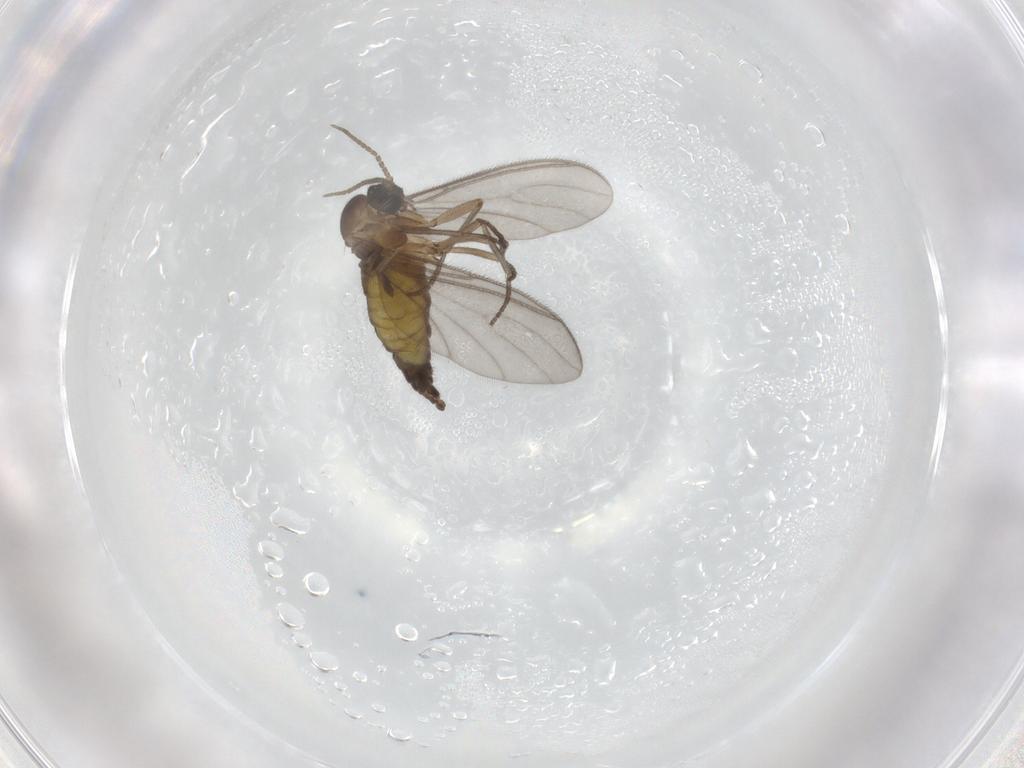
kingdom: Animalia
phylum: Arthropoda
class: Insecta
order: Diptera
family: Sciaridae
